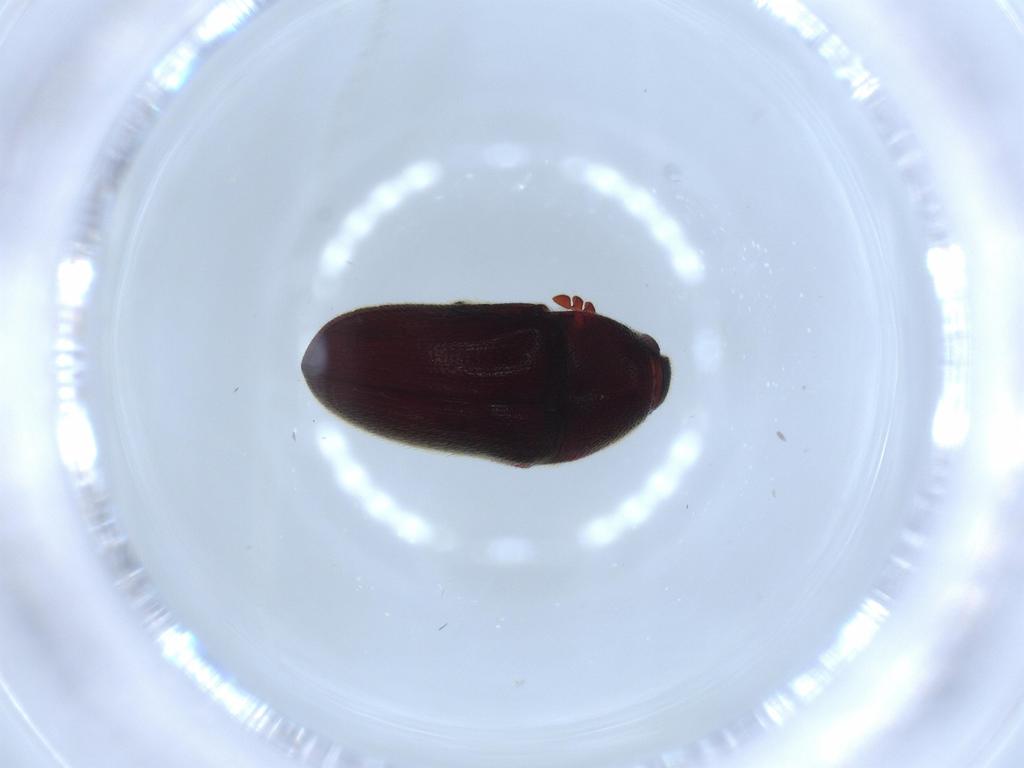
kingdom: Animalia
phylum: Arthropoda
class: Insecta
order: Coleoptera
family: Throscidae
